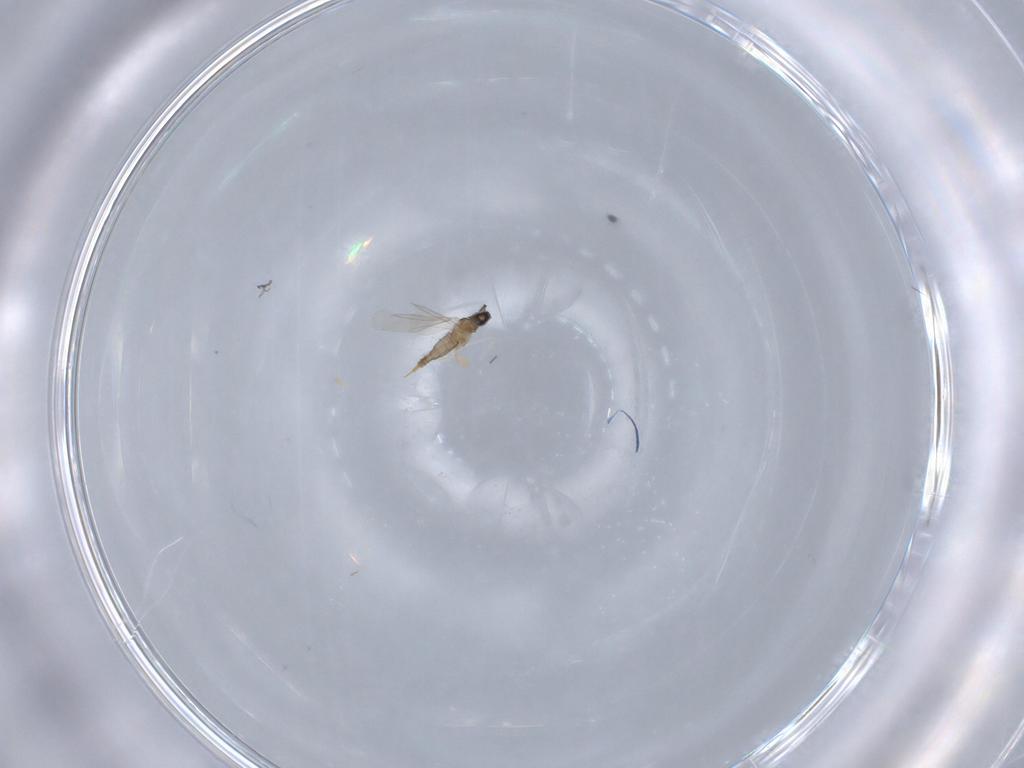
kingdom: Animalia
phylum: Arthropoda
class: Insecta
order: Diptera
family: Cecidomyiidae
